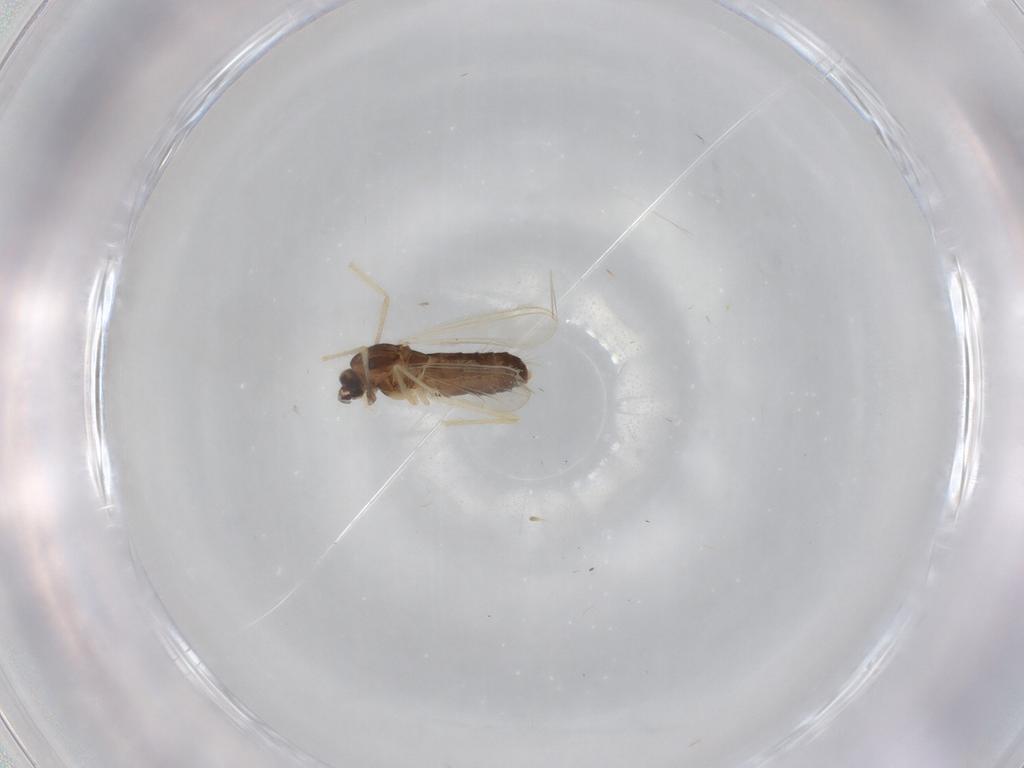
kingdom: Animalia
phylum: Arthropoda
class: Insecta
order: Diptera
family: Chironomidae
